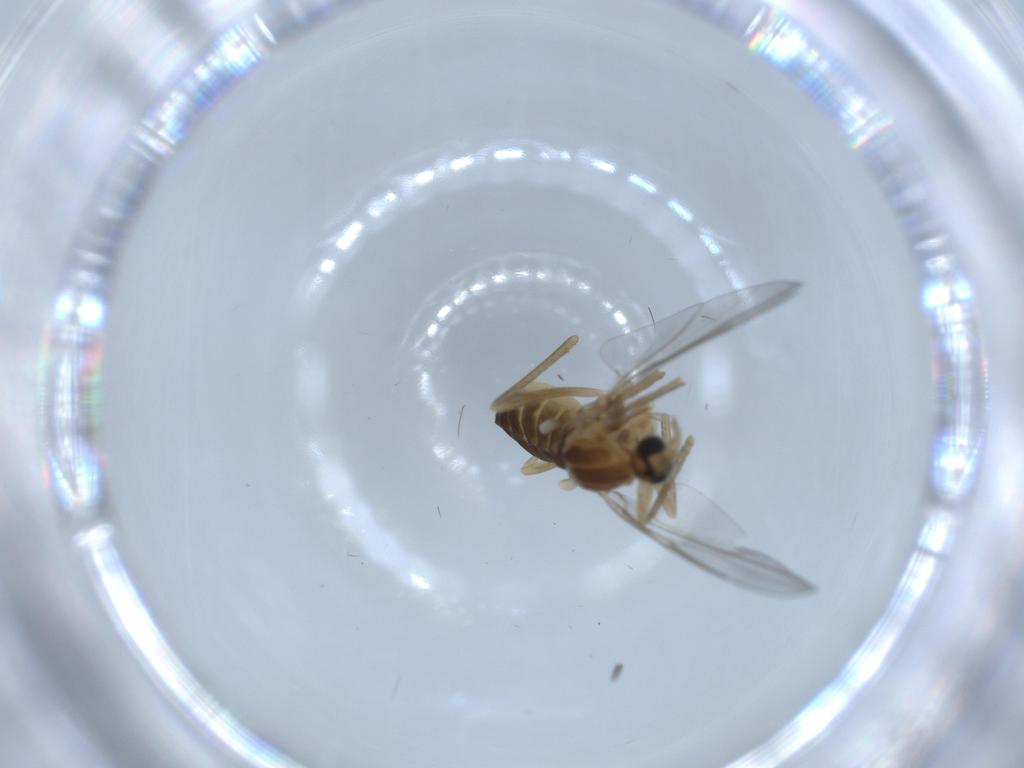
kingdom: Animalia
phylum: Arthropoda
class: Insecta
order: Diptera
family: Cecidomyiidae
